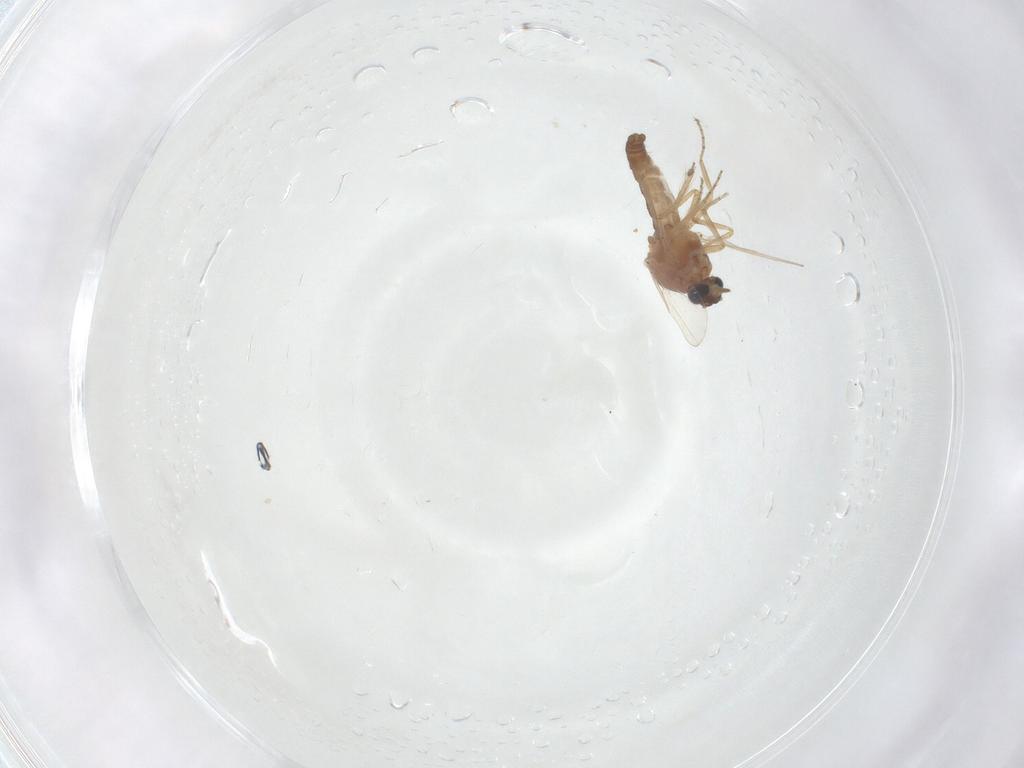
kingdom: Animalia
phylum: Arthropoda
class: Insecta
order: Diptera
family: Ceratopogonidae
